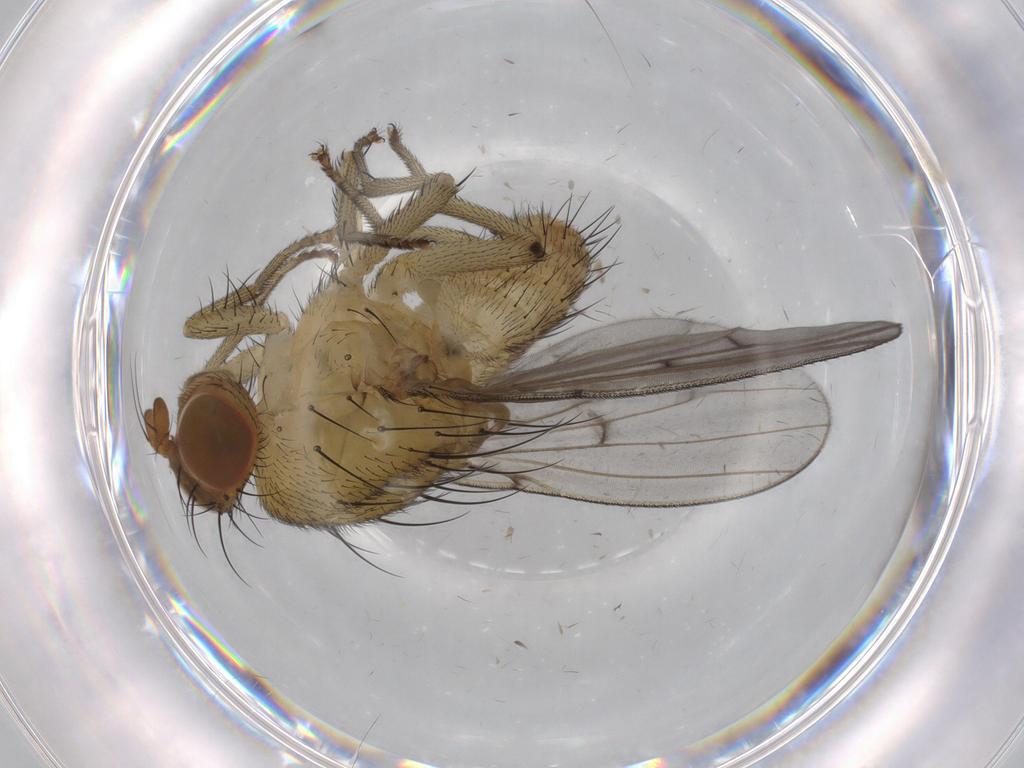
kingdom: Animalia
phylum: Arthropoda
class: Insecta
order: Diptera
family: Lauxaniidae
